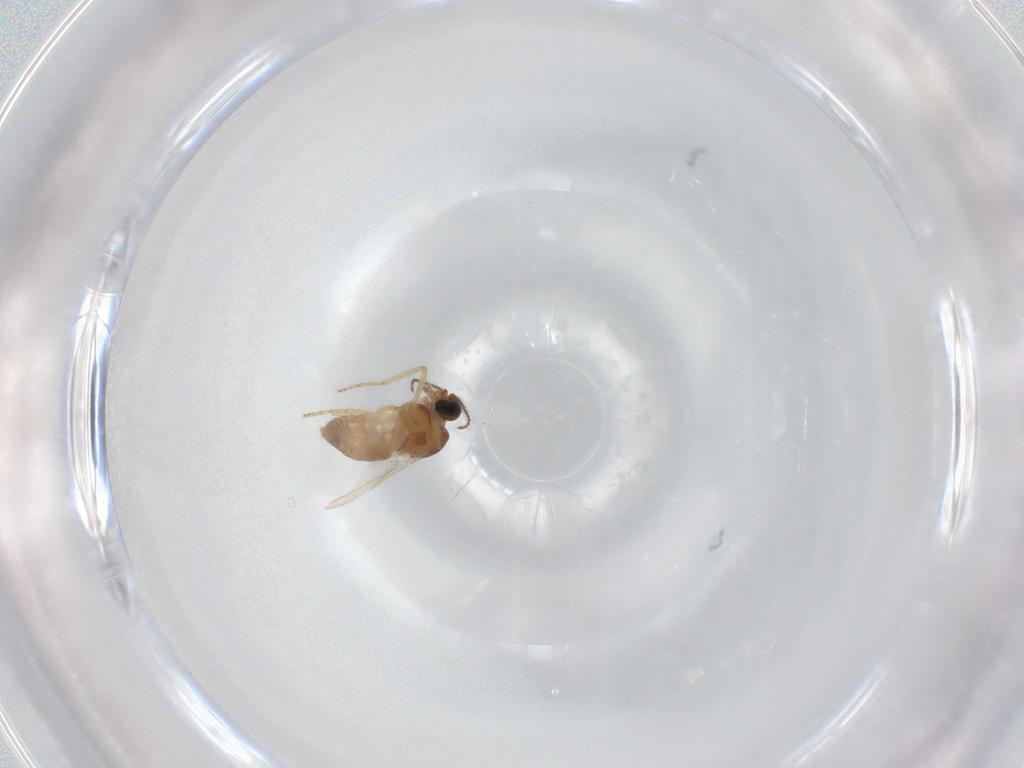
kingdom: Animalia
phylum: Arthropoda
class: Insecta
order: Diptera
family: Ceratopogonidae
